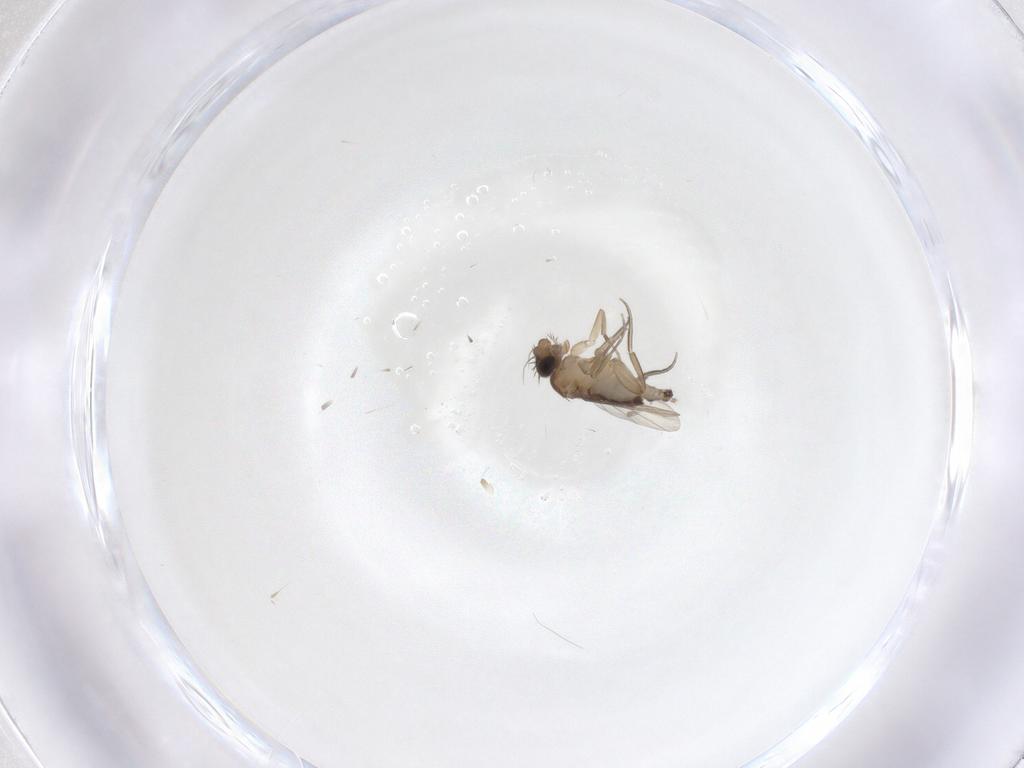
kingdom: Animalia
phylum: Arthropoda
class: Insecta
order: Diptera
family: Phoridae
